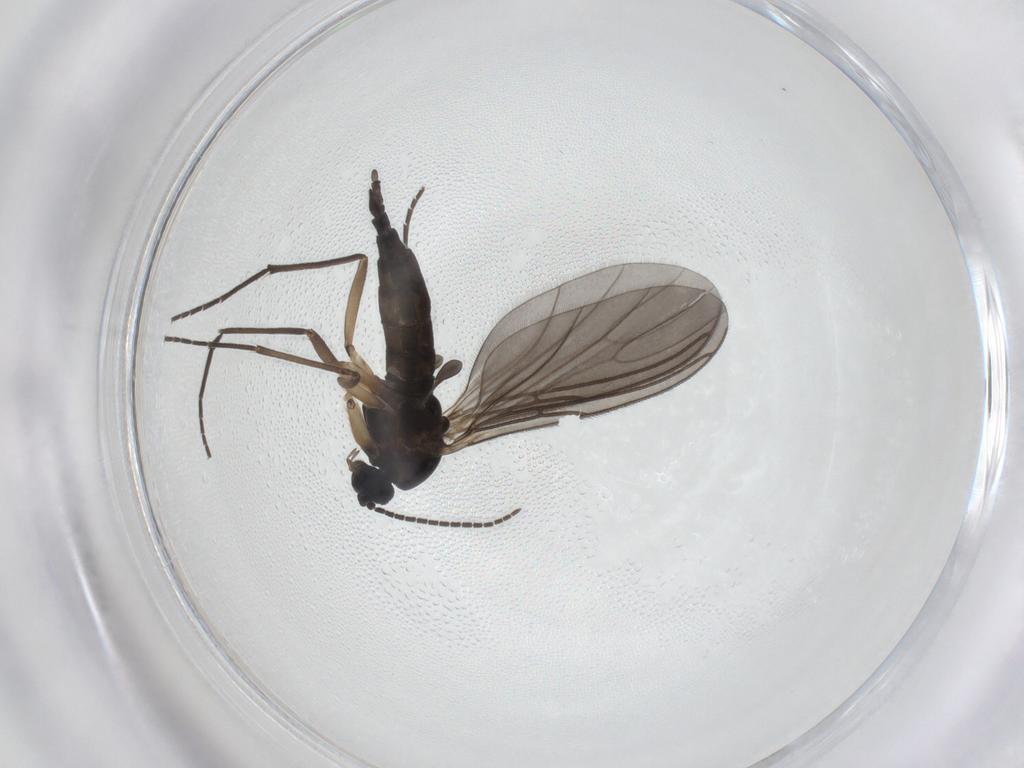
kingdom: Animalia
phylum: Arthropoda
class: Insecta
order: Diptera
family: Sciaridae
